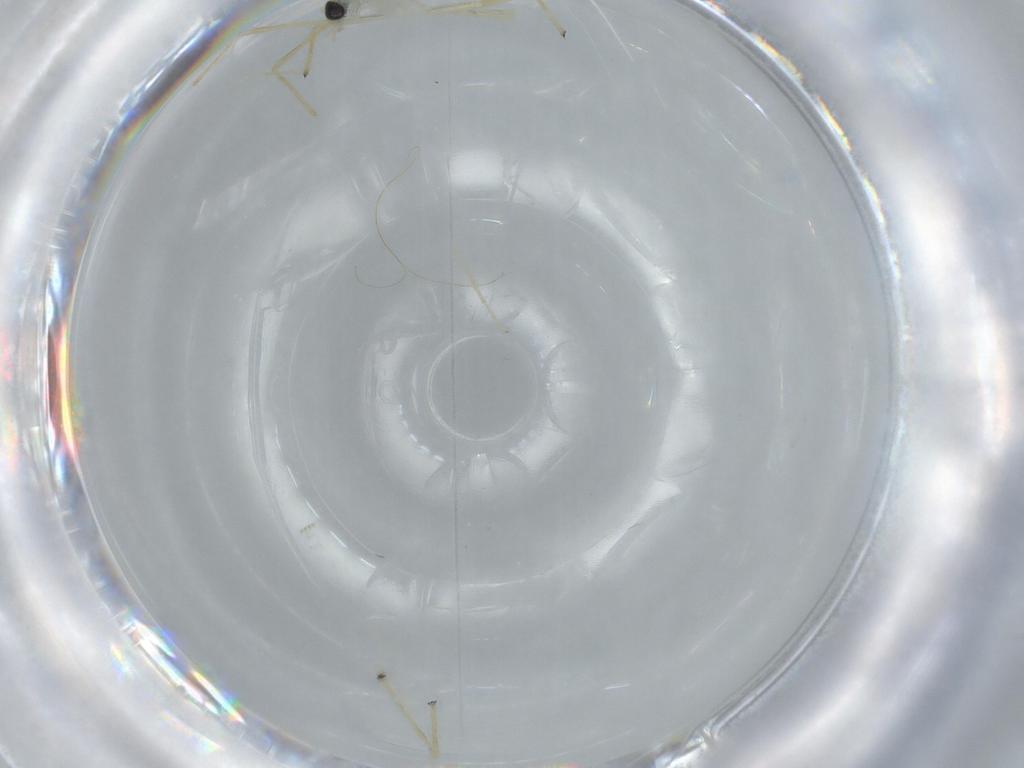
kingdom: Animalia
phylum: Arthropoda
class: Insecta
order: Diptera
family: Chironomidae
